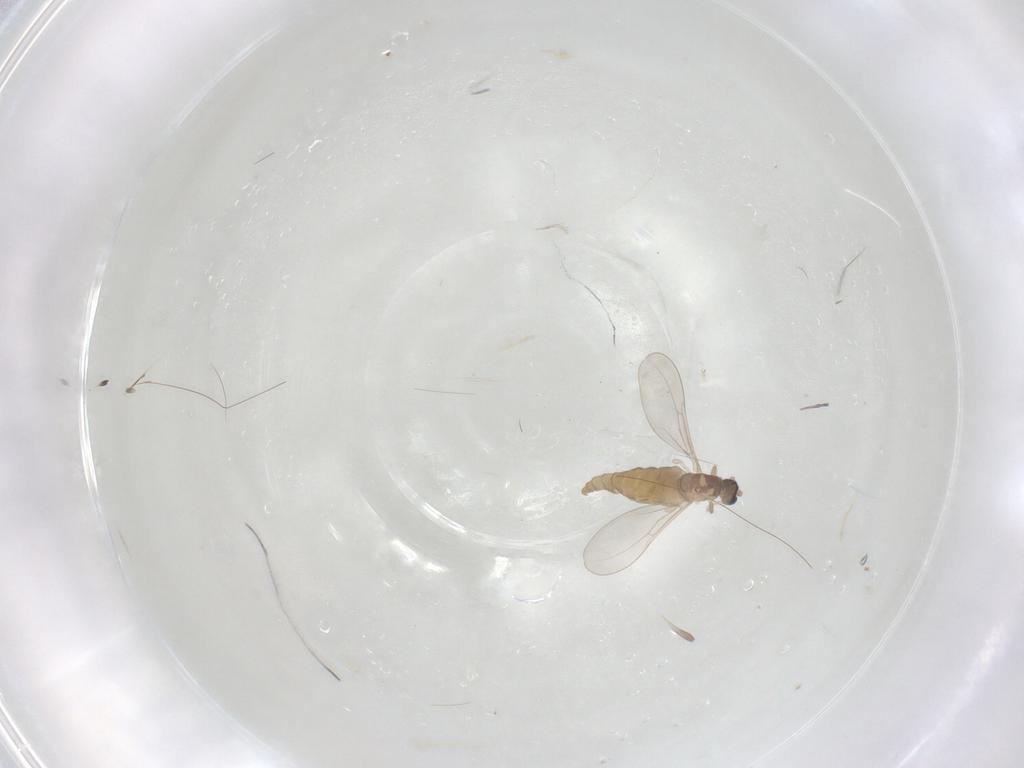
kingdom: Animalia
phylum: Arthropoda
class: Insecta
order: Diptera
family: Cecidomyiidae
